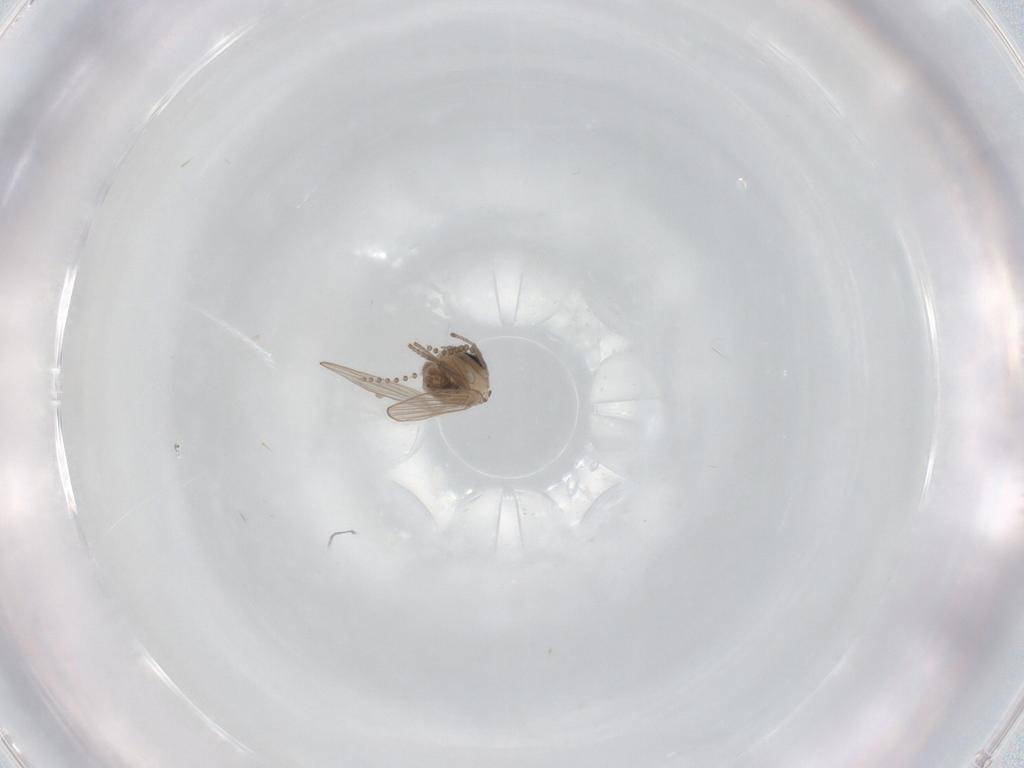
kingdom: Animalia
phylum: Arthropoda
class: Insecta
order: Diptera
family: Psychodidae
